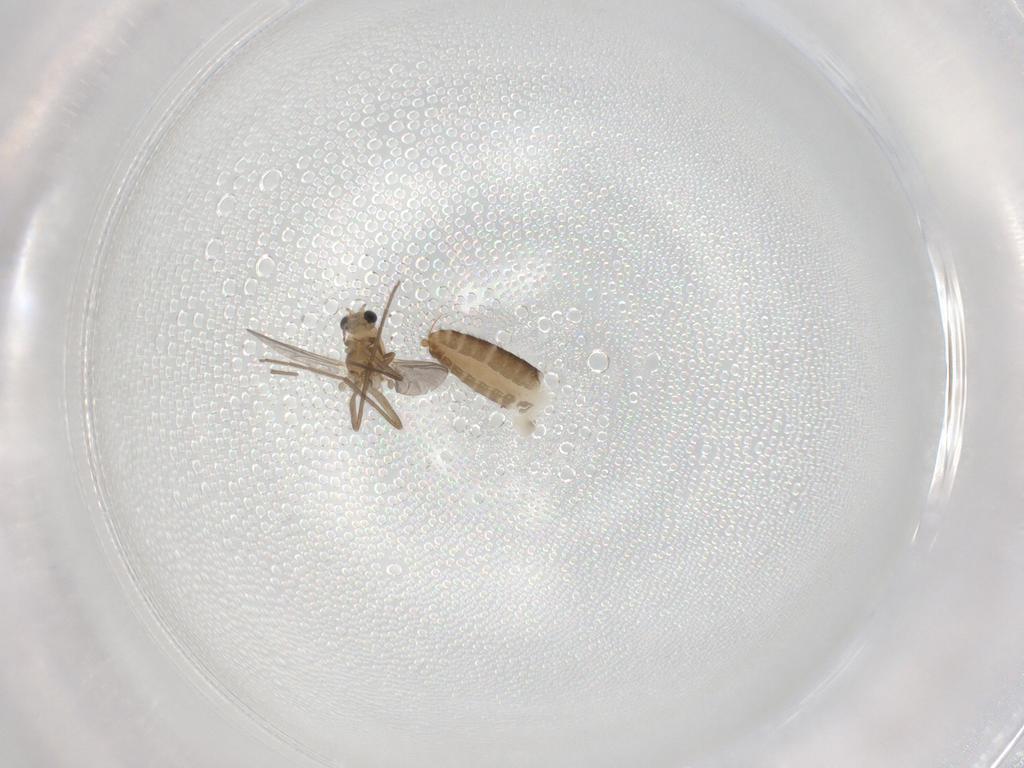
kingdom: Animalia
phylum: Arthropoda
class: Insecta
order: Diptera
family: Chironomidae
